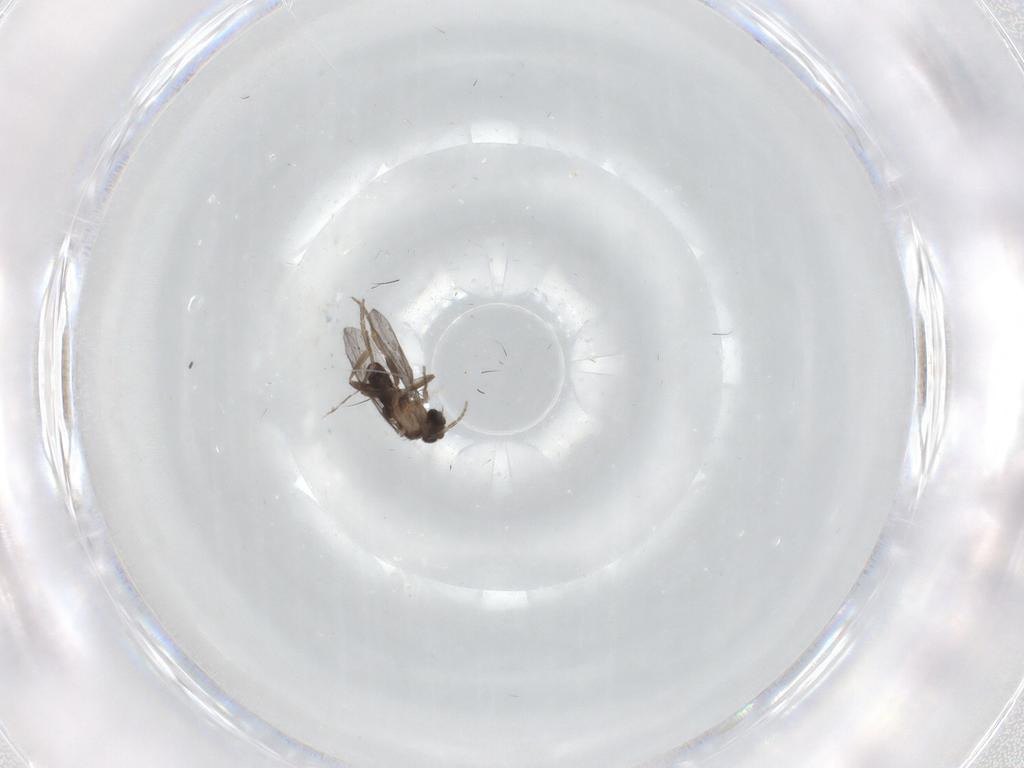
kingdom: Animalia
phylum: Arthropoda
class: Insecta
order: Diptera
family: Sciaridae
